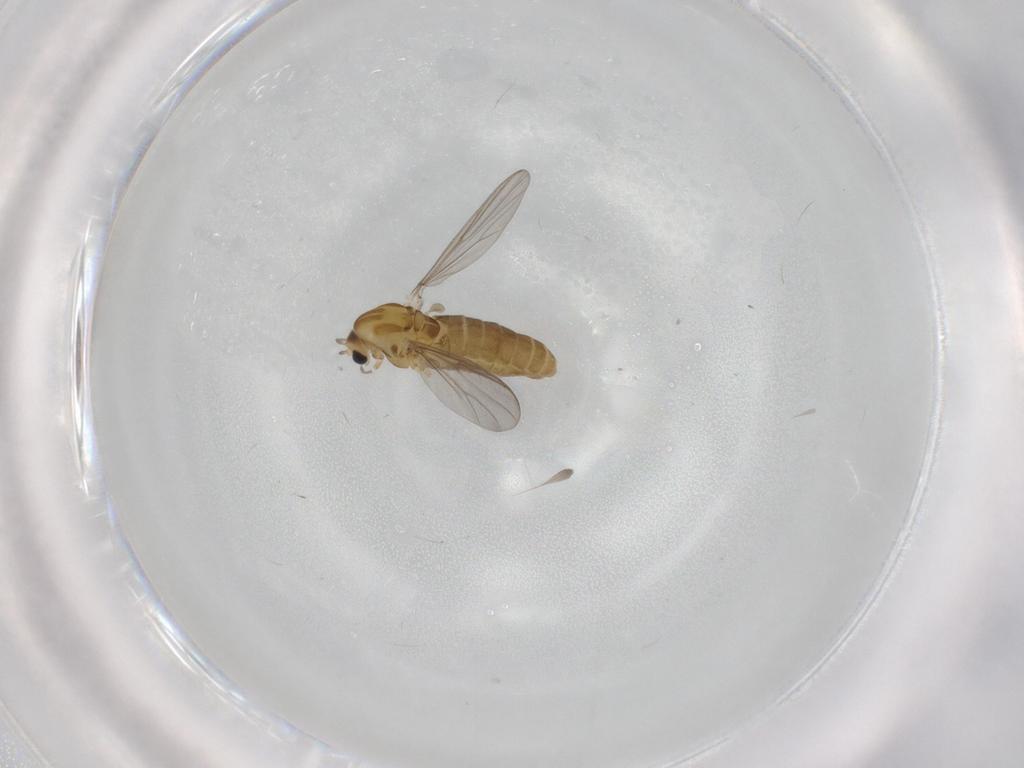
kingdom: Animalia
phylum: Arthropoda
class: Insecta
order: Diptera
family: Chironomidae
